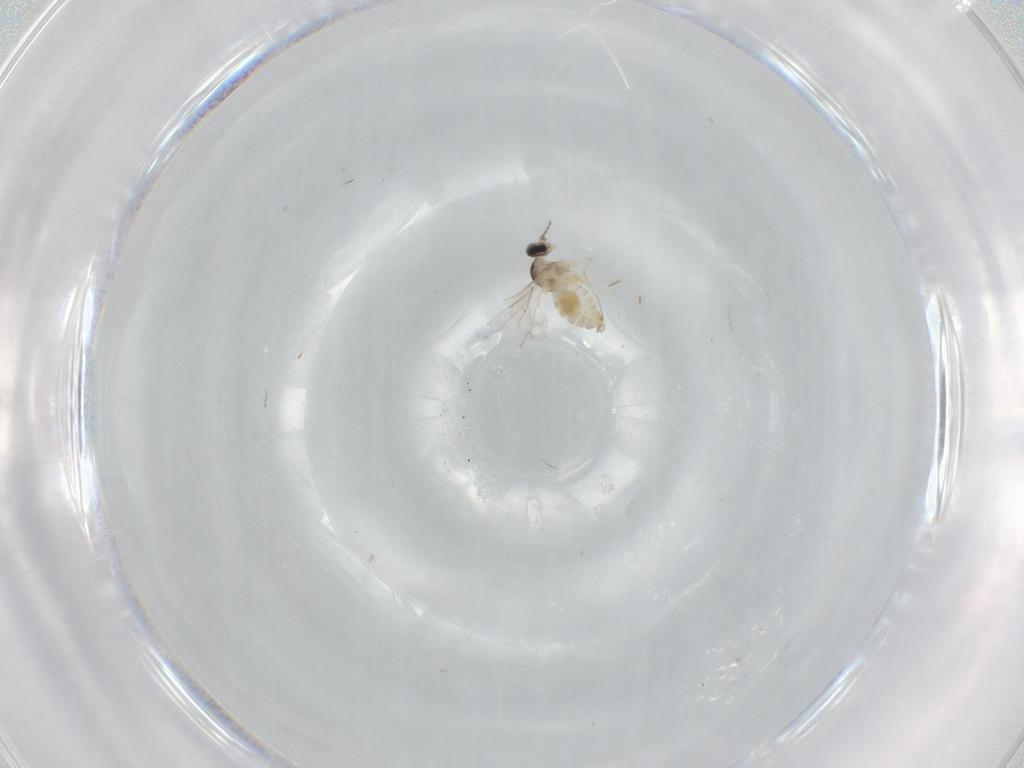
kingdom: Animalia
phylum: Arthropoda
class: Insecta
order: Diptera
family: Cecidomyiidae
